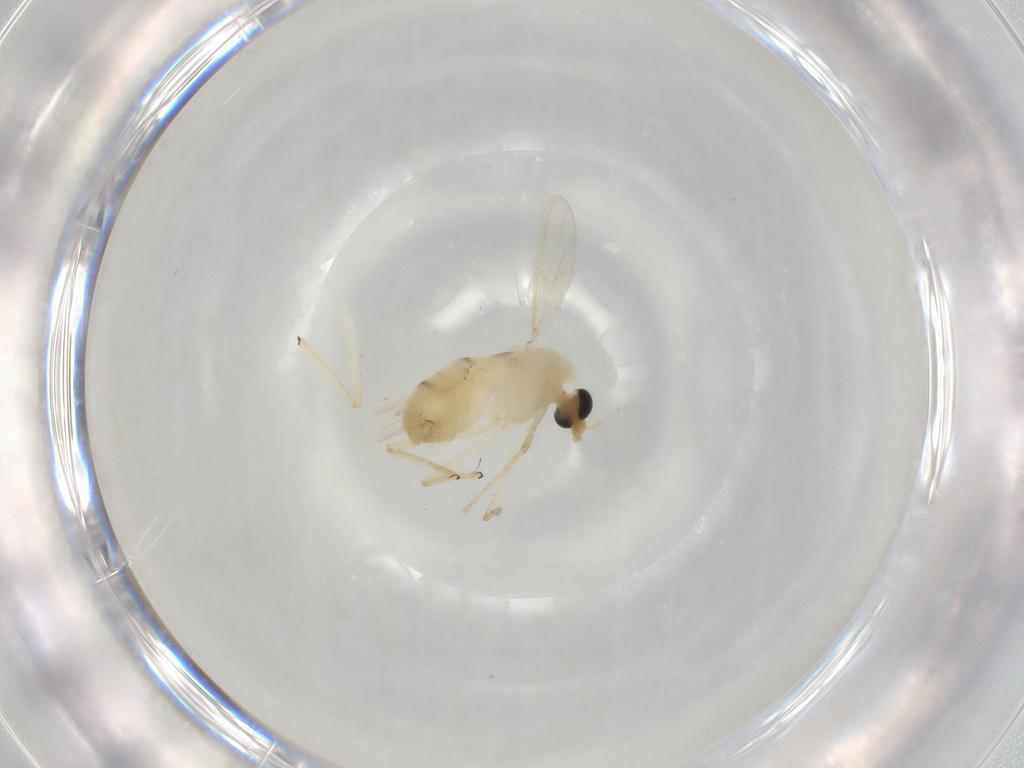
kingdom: Animalia
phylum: Arthropoda
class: Insecta
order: Diptera
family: Chironomidae
